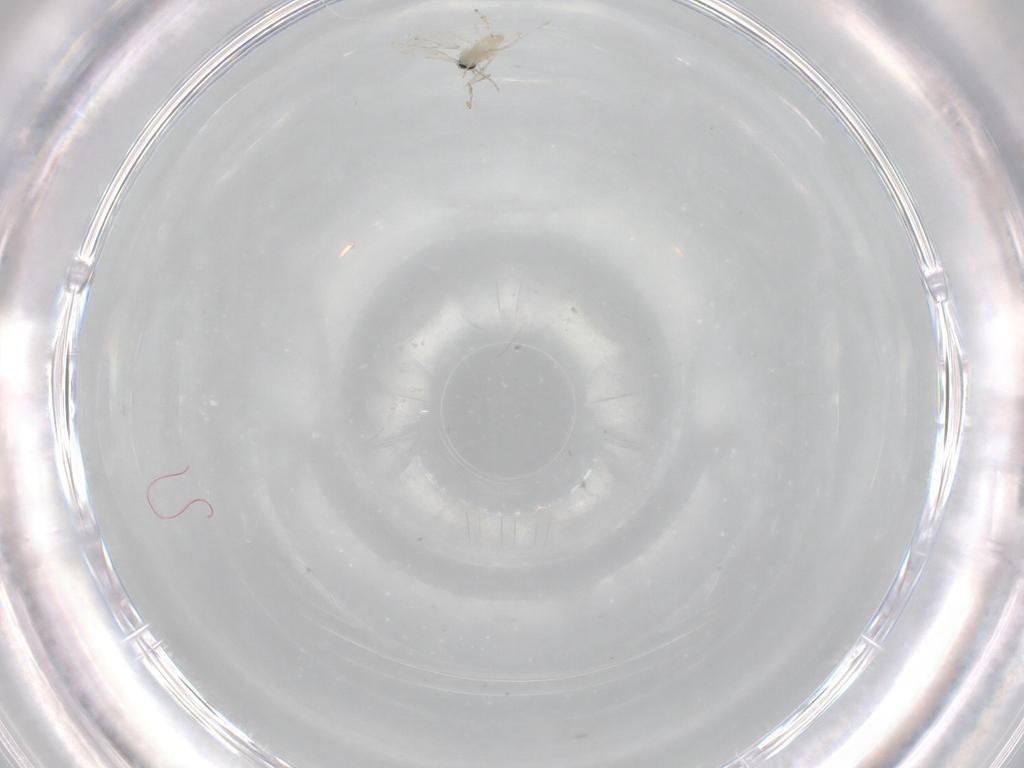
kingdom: Animalia
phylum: Arthropoda
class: Insecta
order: Diptera
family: Cecidomyiidae
